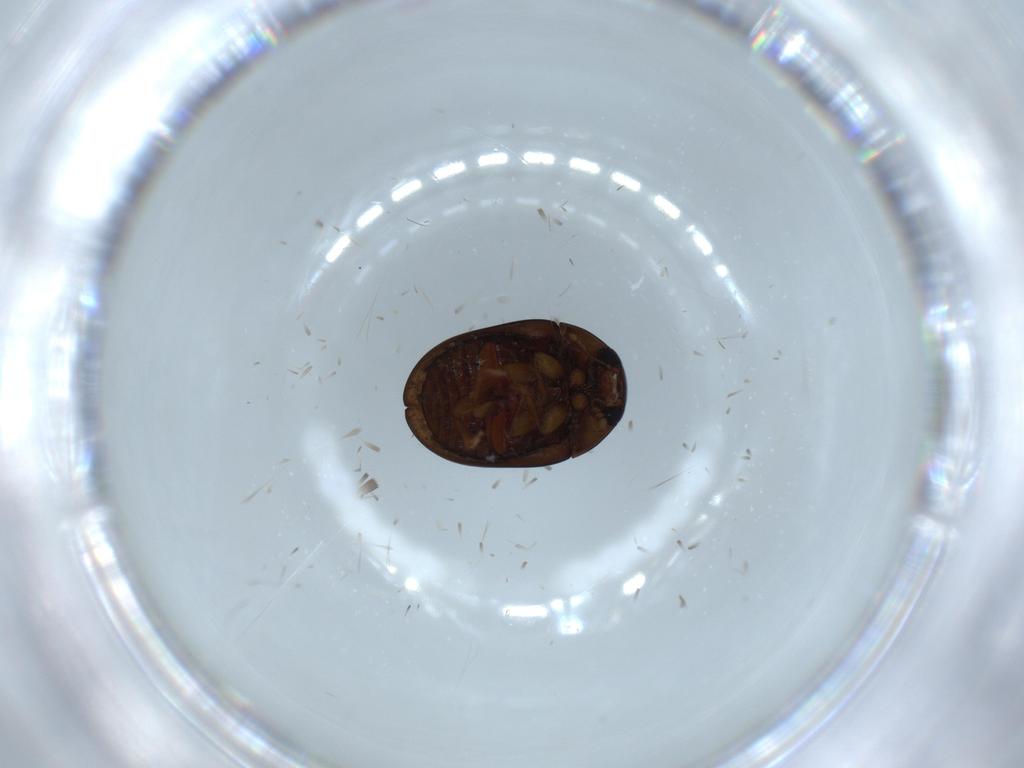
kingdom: Animalia
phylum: Arthropoda
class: Insecta
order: Coleoptera
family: Phalacridae
